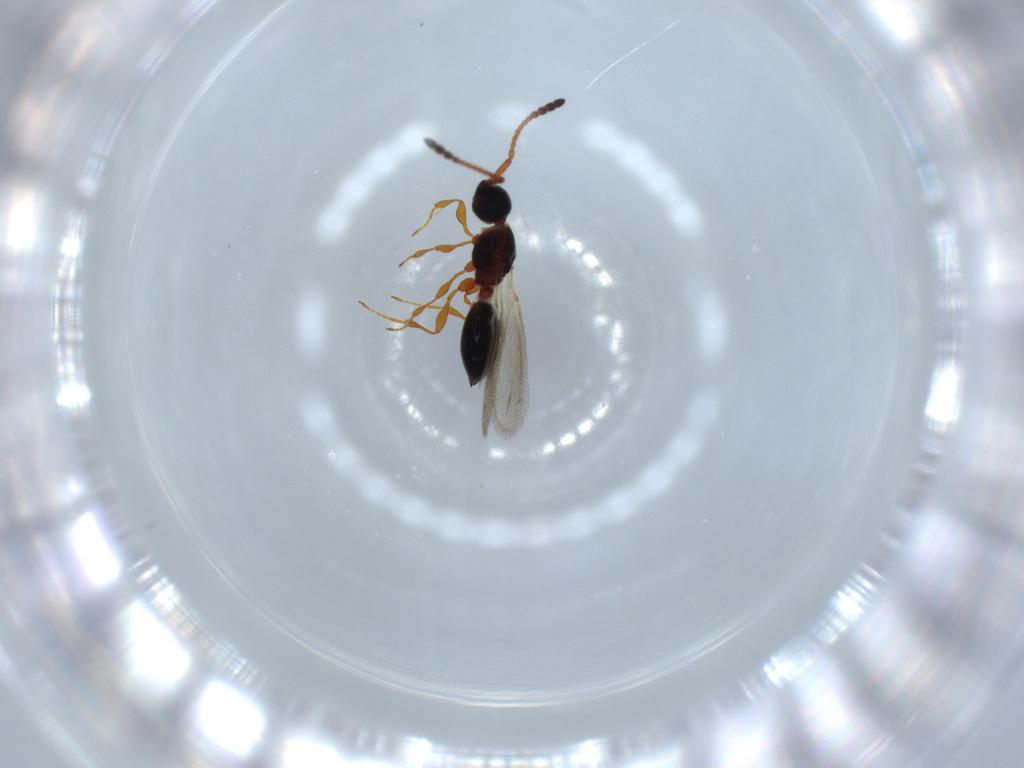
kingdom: Animalia
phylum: Arthropoda
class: Insecta
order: Hymenoptera
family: Diapriidae
